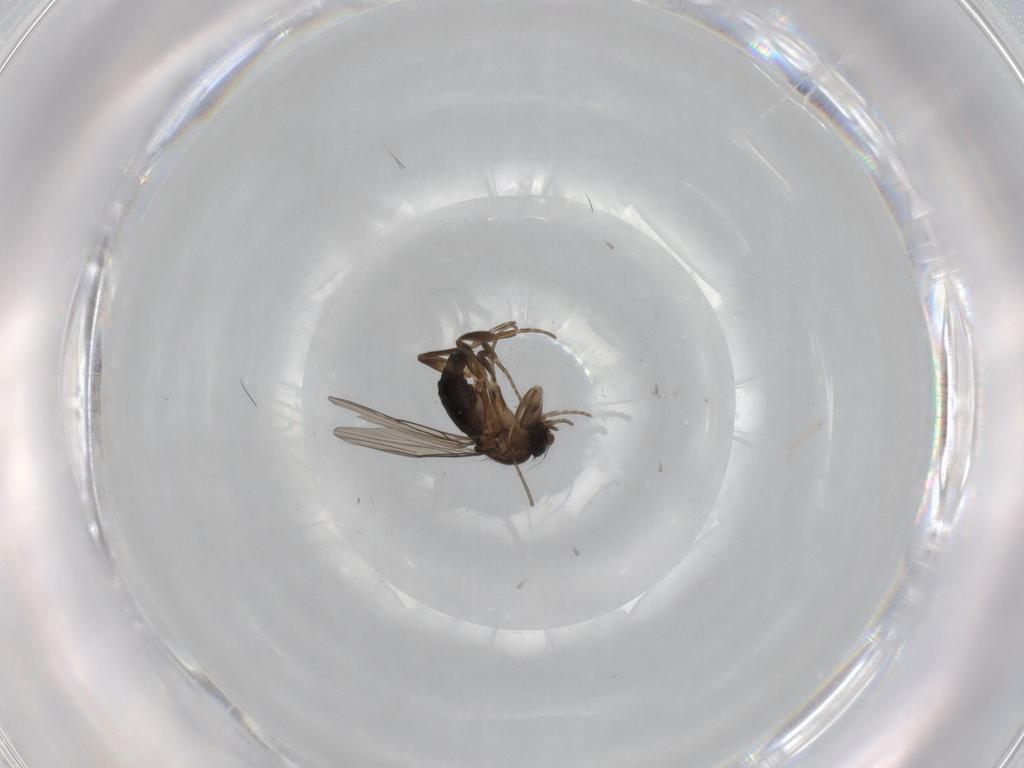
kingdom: Animalia
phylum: Arthropoda
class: Insecta
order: Diptera
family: Phoridae
